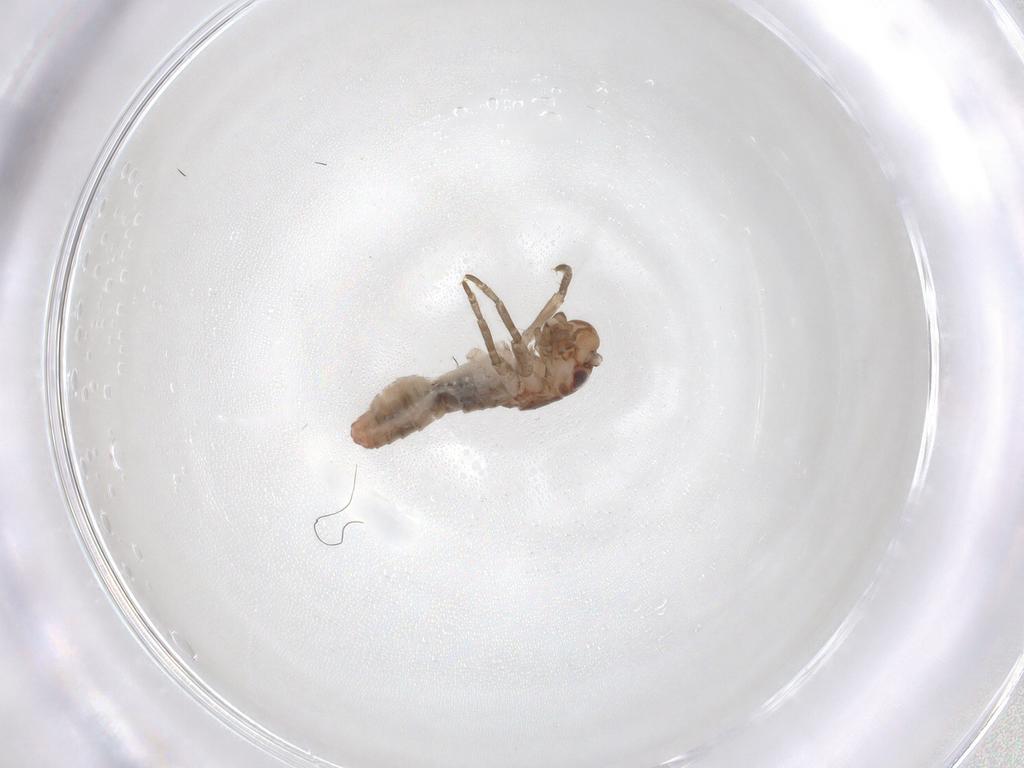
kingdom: Animalia
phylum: Arthropoda
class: Insecta
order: Orthoptera
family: Mogoplistidae
